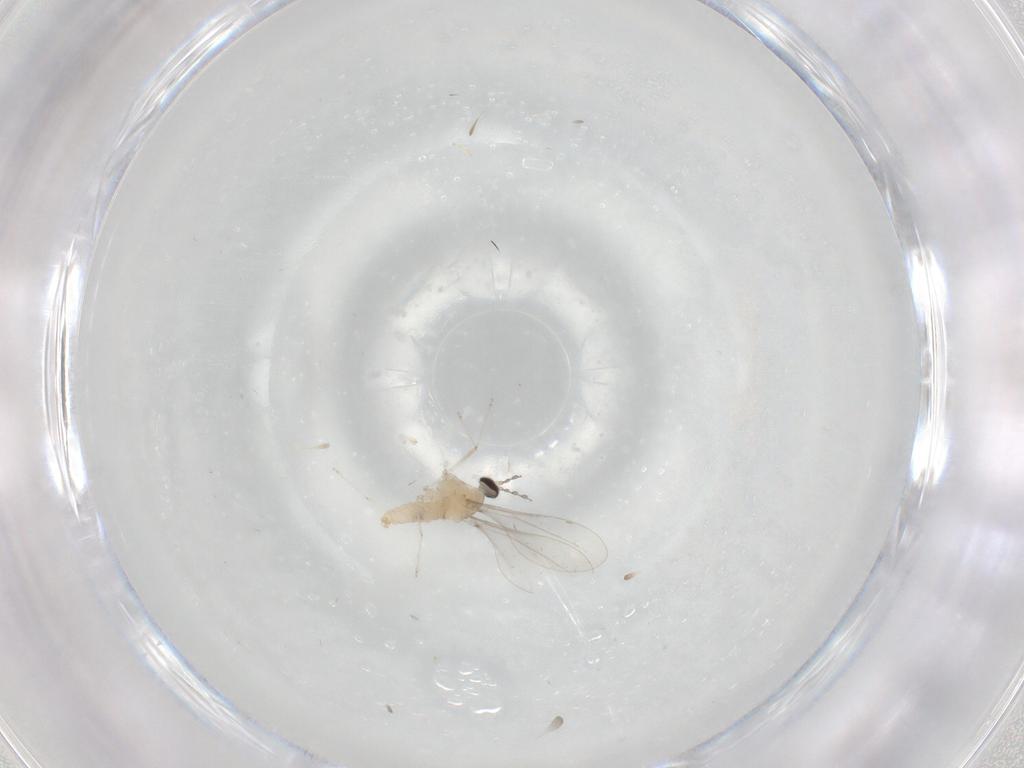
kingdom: Animalia
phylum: Arthropoda
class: Insecta
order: Diptera
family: Cecidomyiidae
